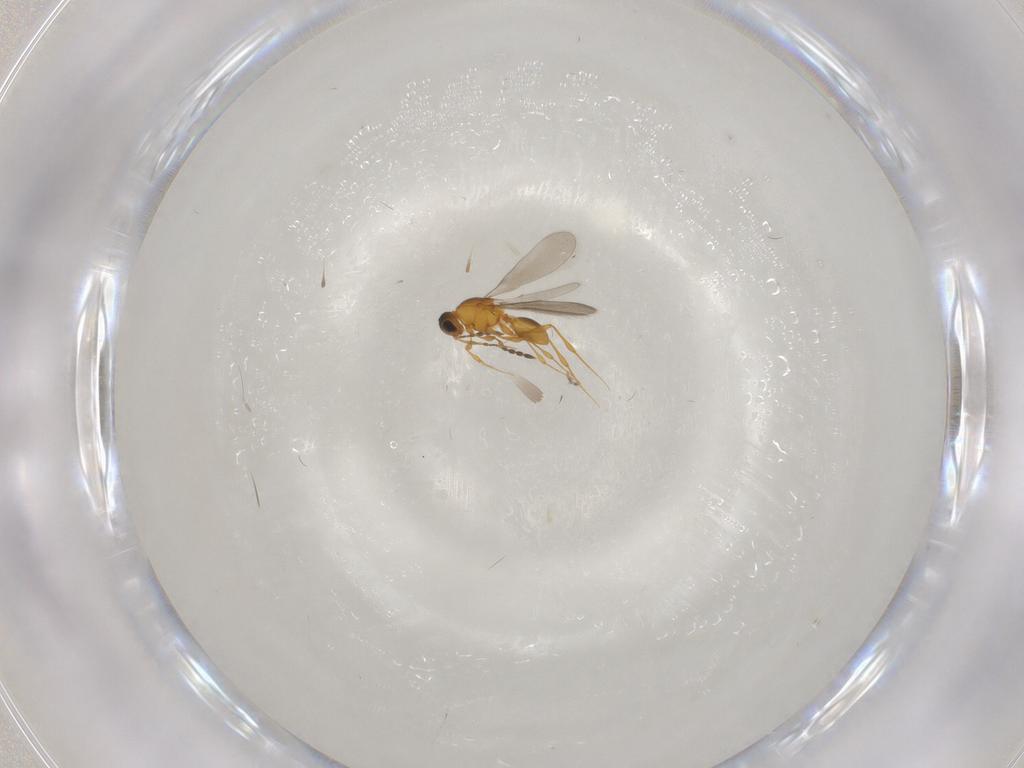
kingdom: Animalia
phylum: Arthropoda
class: Insecta
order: Hymenoptera
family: Platygastridae
